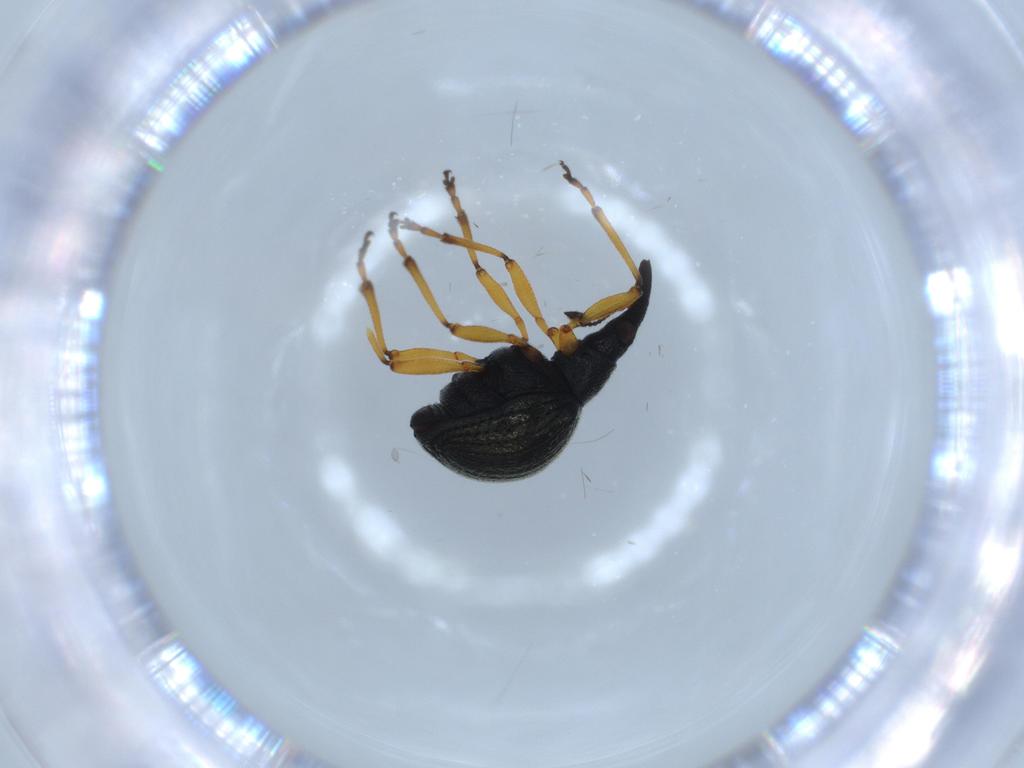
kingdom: Animalia
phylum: Arthropoda
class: Insecta
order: Coleoptera
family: Brentidae
